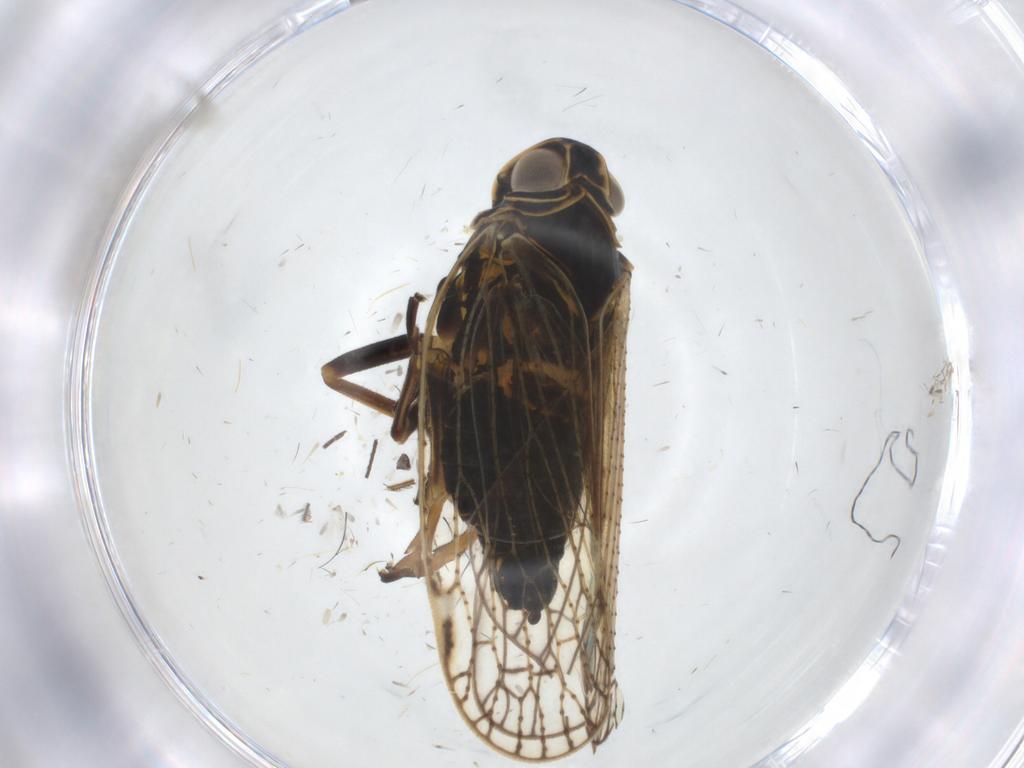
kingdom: Animalia
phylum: Arthropoda
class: Insecta
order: Hemiptera
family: Cixiidae
